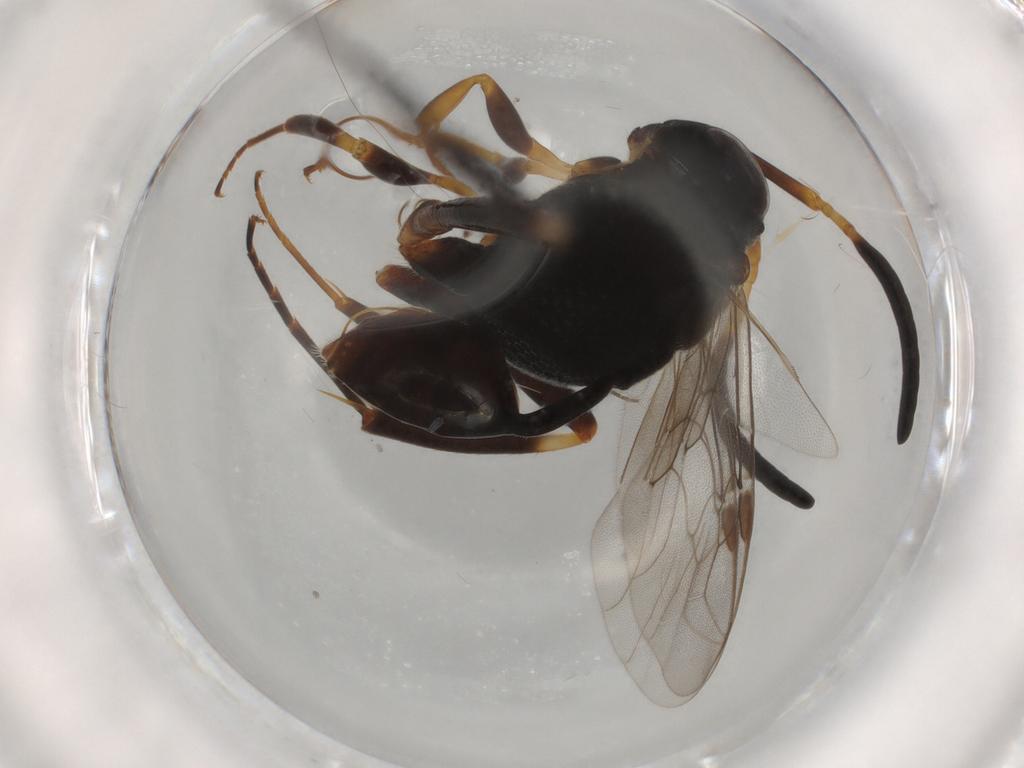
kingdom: Animalia
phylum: Arthropoda
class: Insecta
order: Hymenoptera
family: Evaniidae
